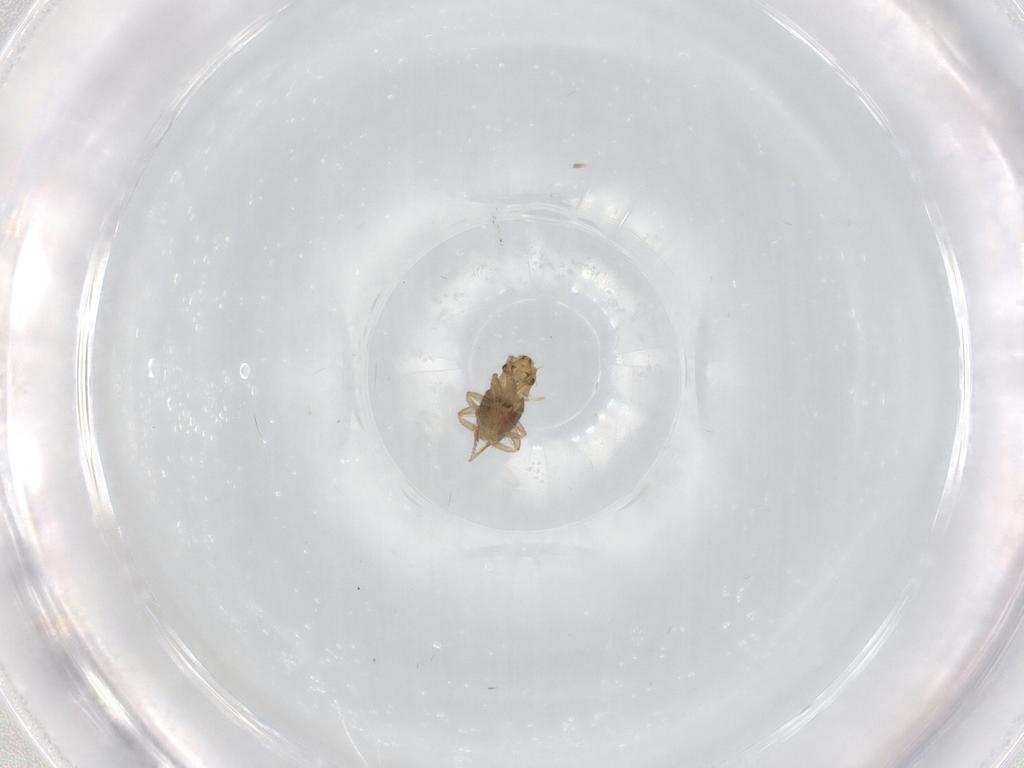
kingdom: Animalia
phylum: Arthropoda
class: Insecta
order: Diptera
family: Phoridae
